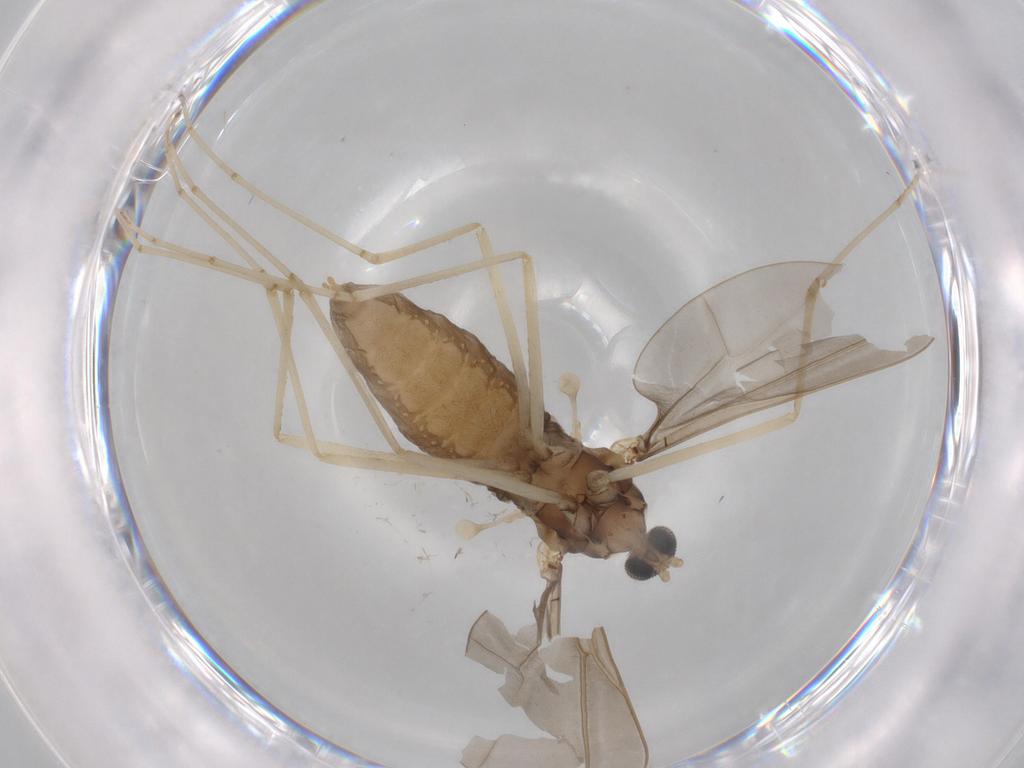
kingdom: Animalia
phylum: Arthropoda
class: Insecta
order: Diptera
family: Cecidomyiidae
